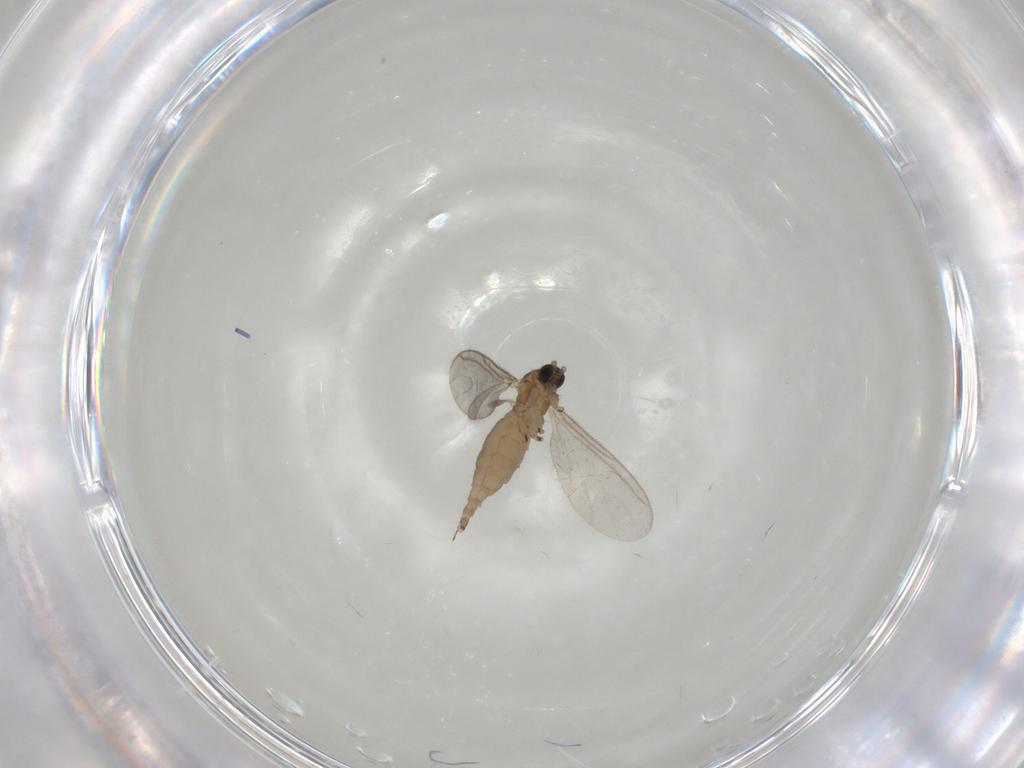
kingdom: Animalia
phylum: Arthropoda
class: Insecta
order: Diptera
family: Sciaridae
